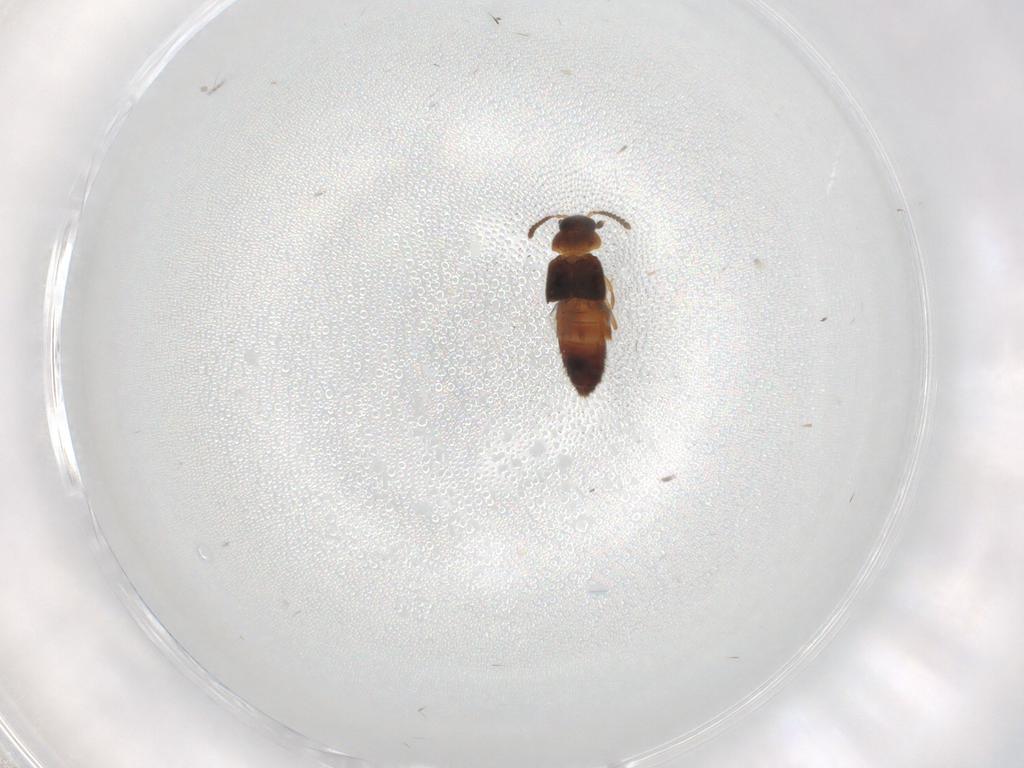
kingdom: Animalia
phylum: Arthropoda
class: Insecta
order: Coleoptera
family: Staphylinidae
